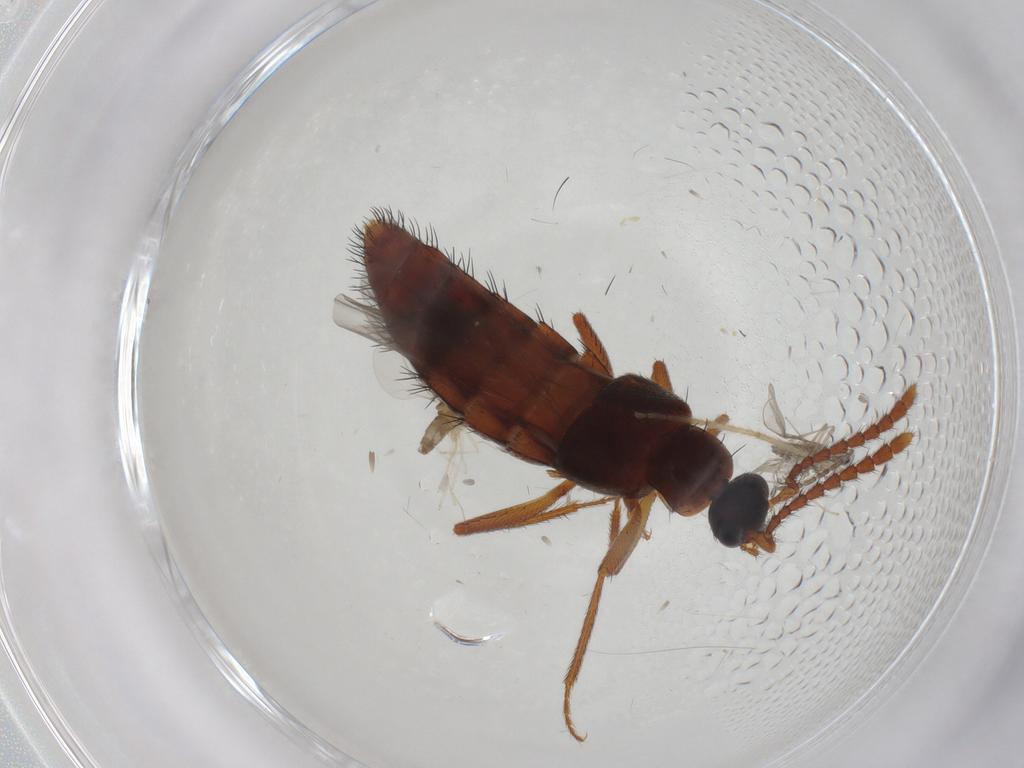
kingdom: Animalia
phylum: Arthropoda
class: Insecta
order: Coleoptera
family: Staphylinidae
